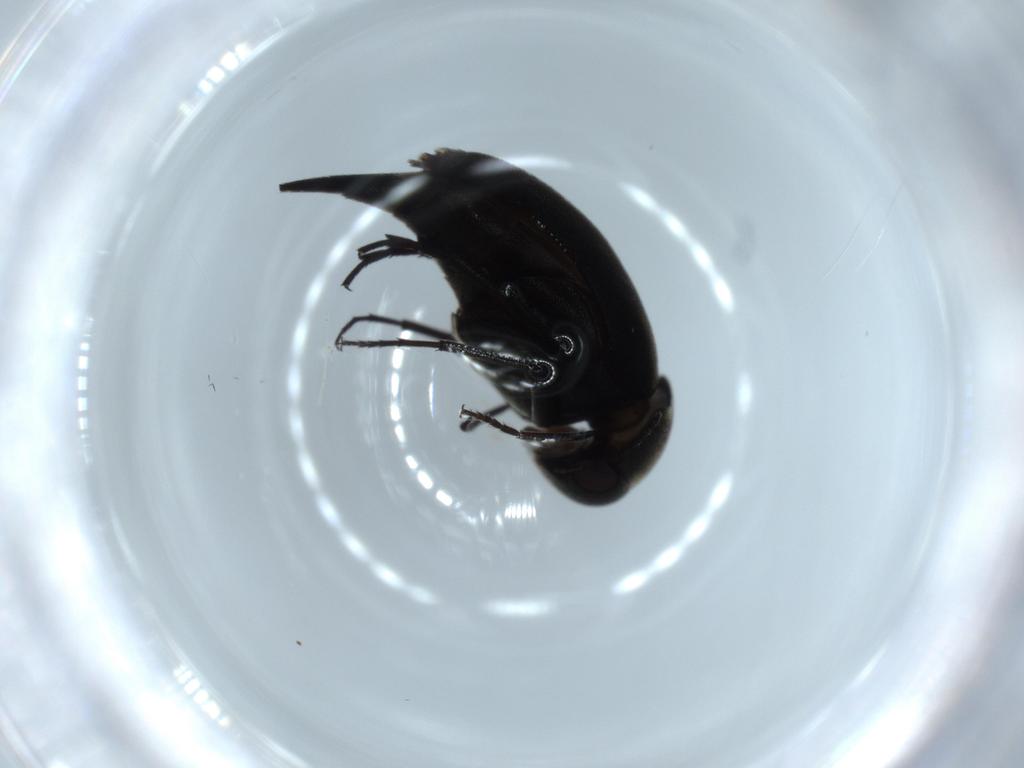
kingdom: Animalia
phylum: Arthropoda
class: Insecta
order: Coleoptera
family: Mordellidae
